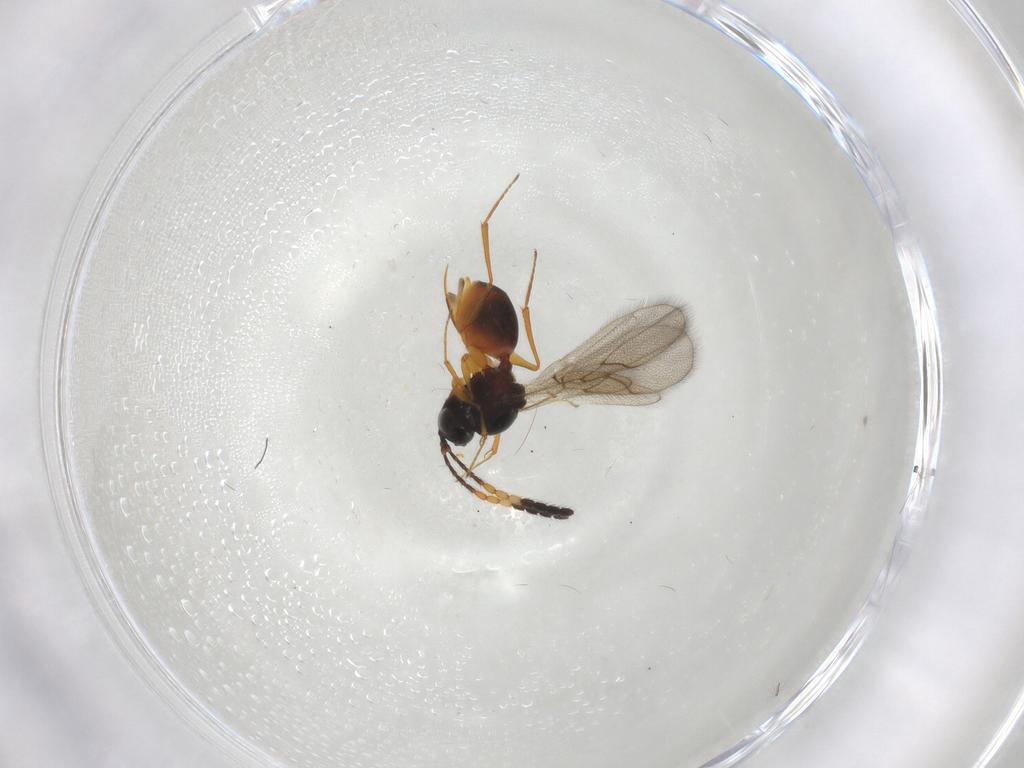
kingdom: Animalia
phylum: Arthropoda
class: Insecta
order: Hymenoptera
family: Figitidae
